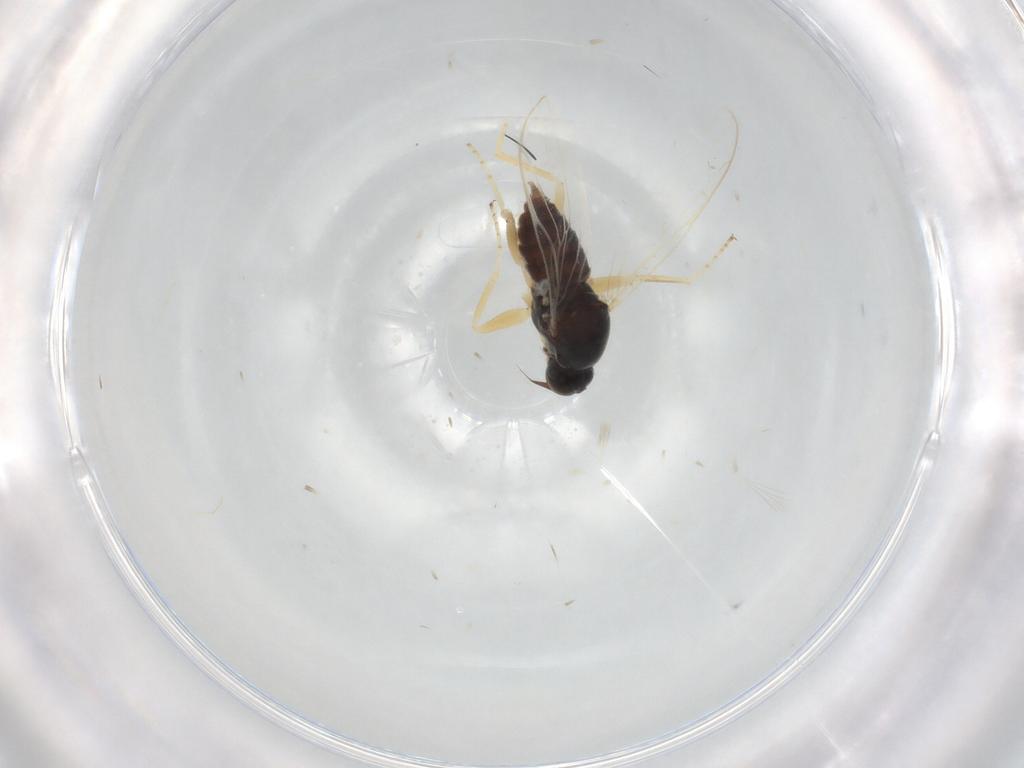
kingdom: Animalia
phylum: Arthropoda
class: Insecta
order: Diptera
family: Hybotidae
